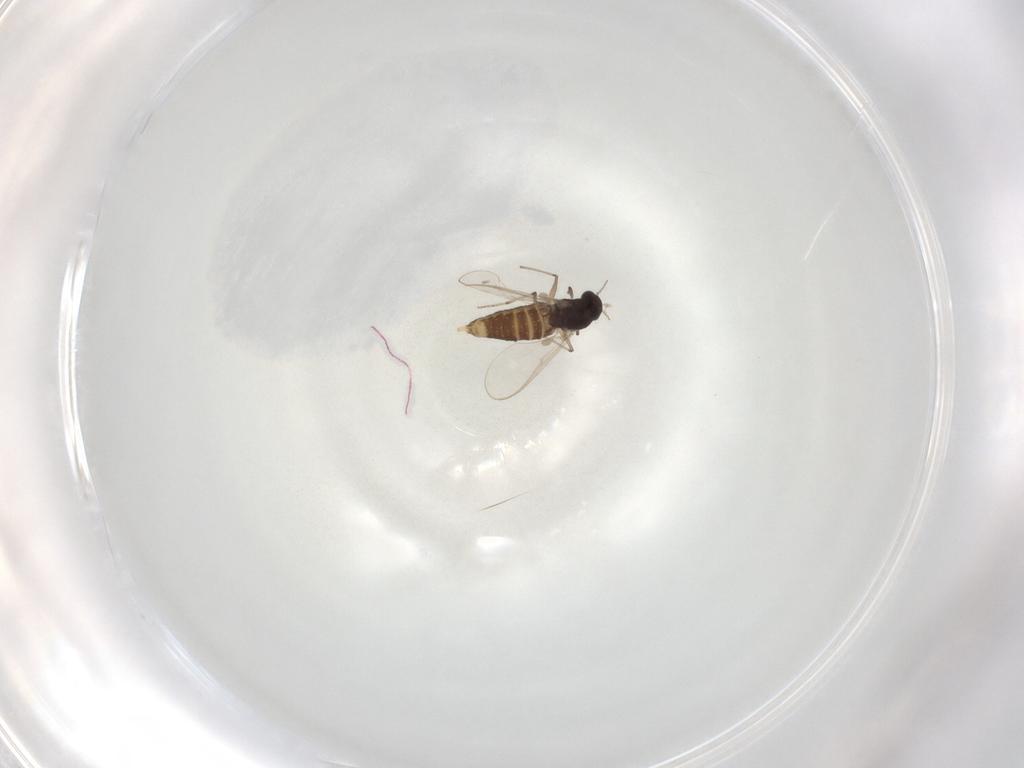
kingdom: Animalia
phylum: Arthropoda
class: Insecta
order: Diptera
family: Chironomidae
